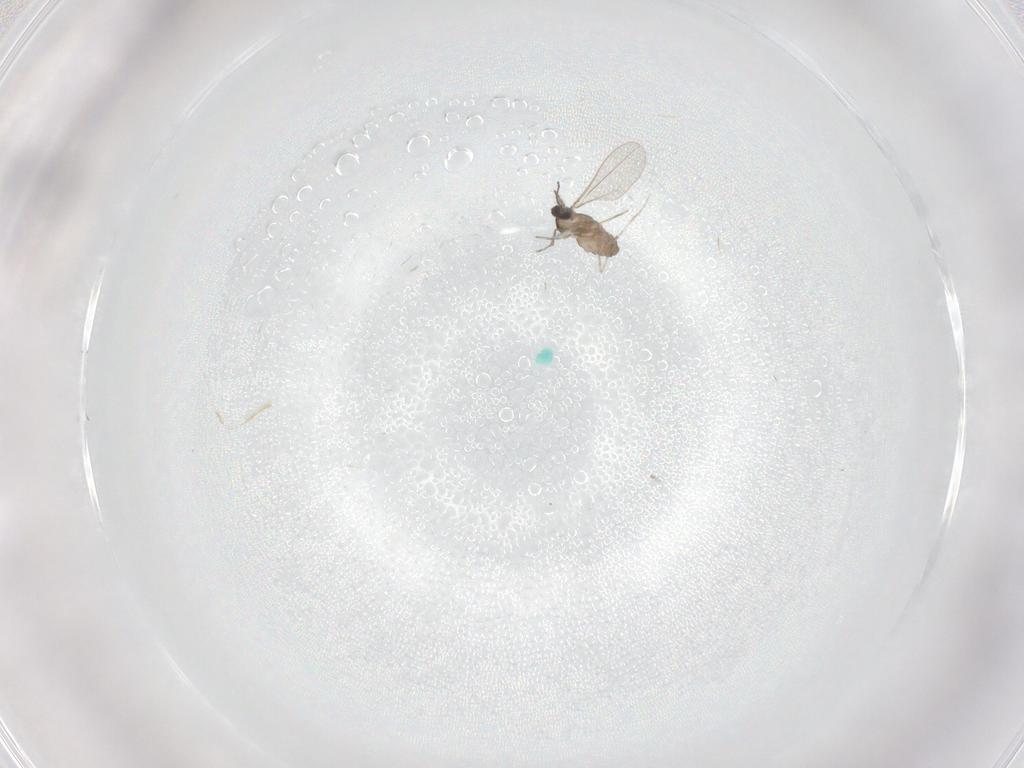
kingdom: Animalia
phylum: Arthropoda
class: Insecta
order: Diptera
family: Cecidomyiidae
